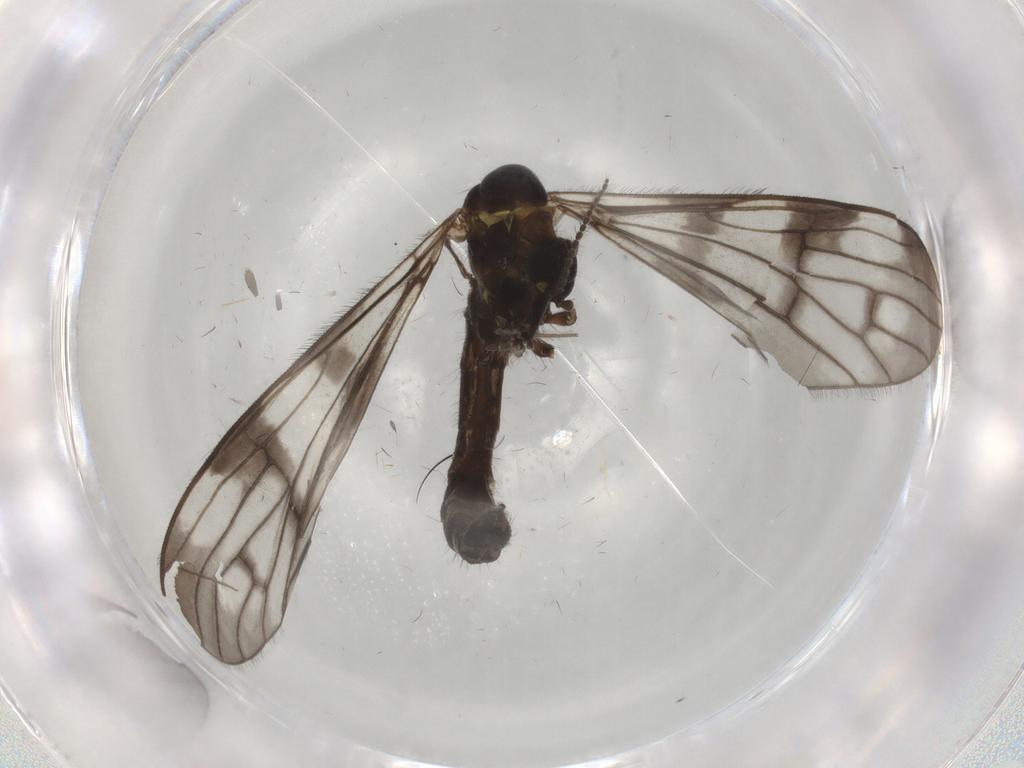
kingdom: Animalia
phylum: Arthropoda
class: Insecta
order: Diptera
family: Limoniidae
